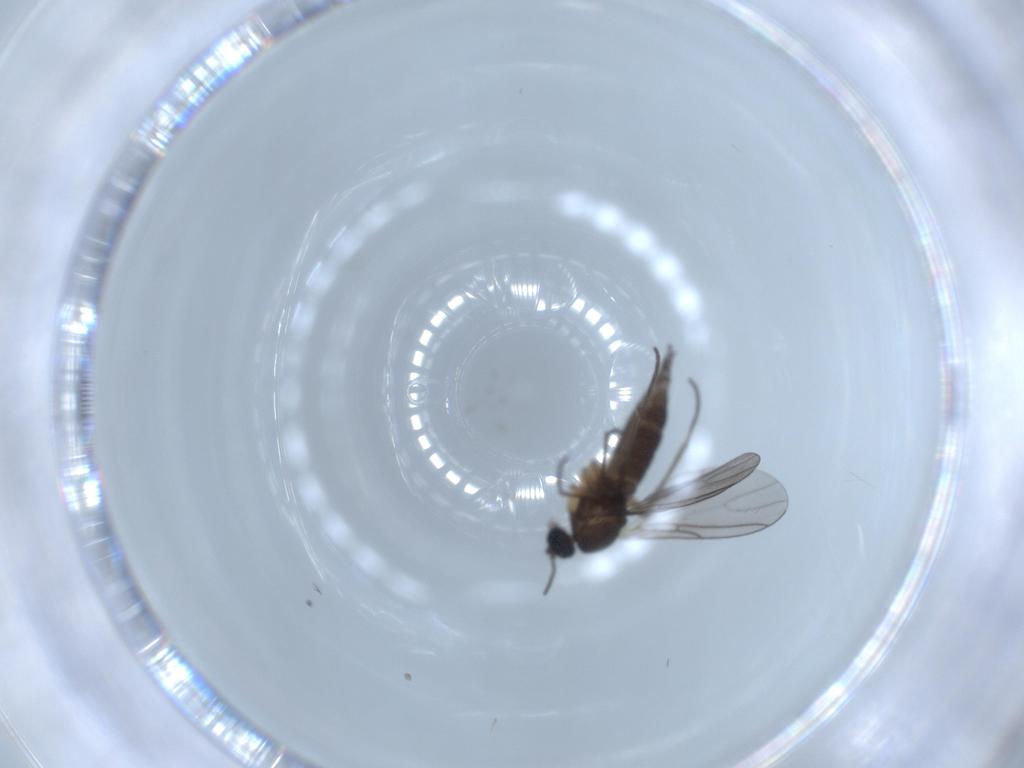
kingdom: Animalia
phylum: Arthropoda
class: Insecta
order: Diptera
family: Sciaridae
